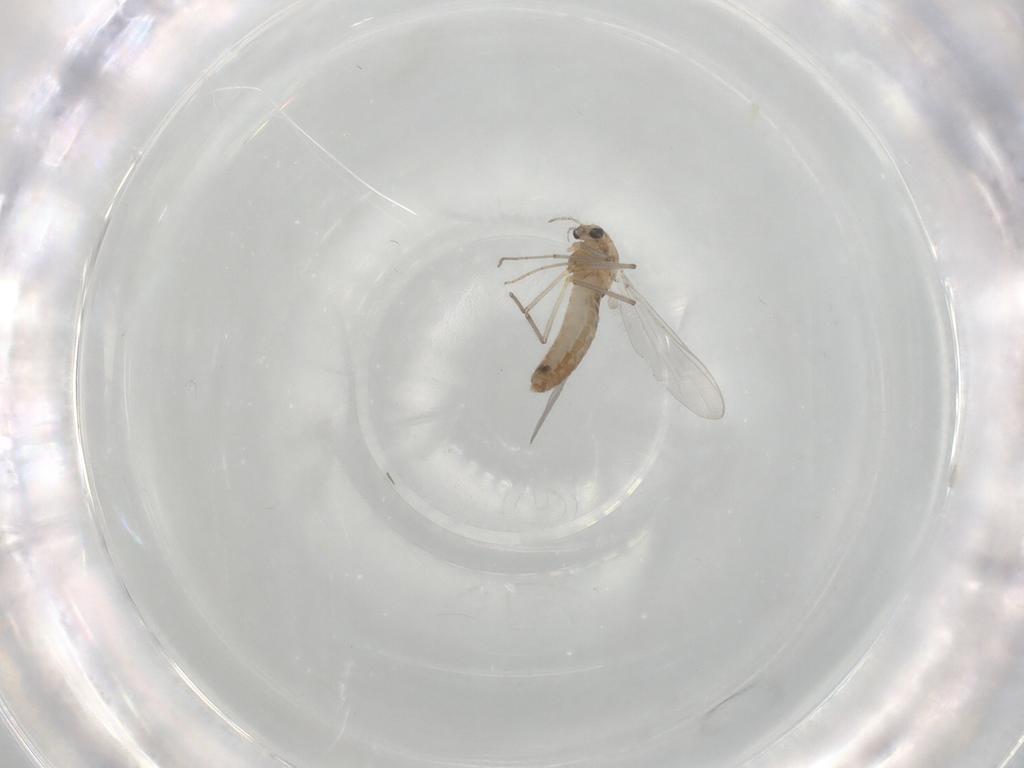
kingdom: Animalia
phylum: Arthropoda
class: Insecta
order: Diptera
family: Chironomidae
